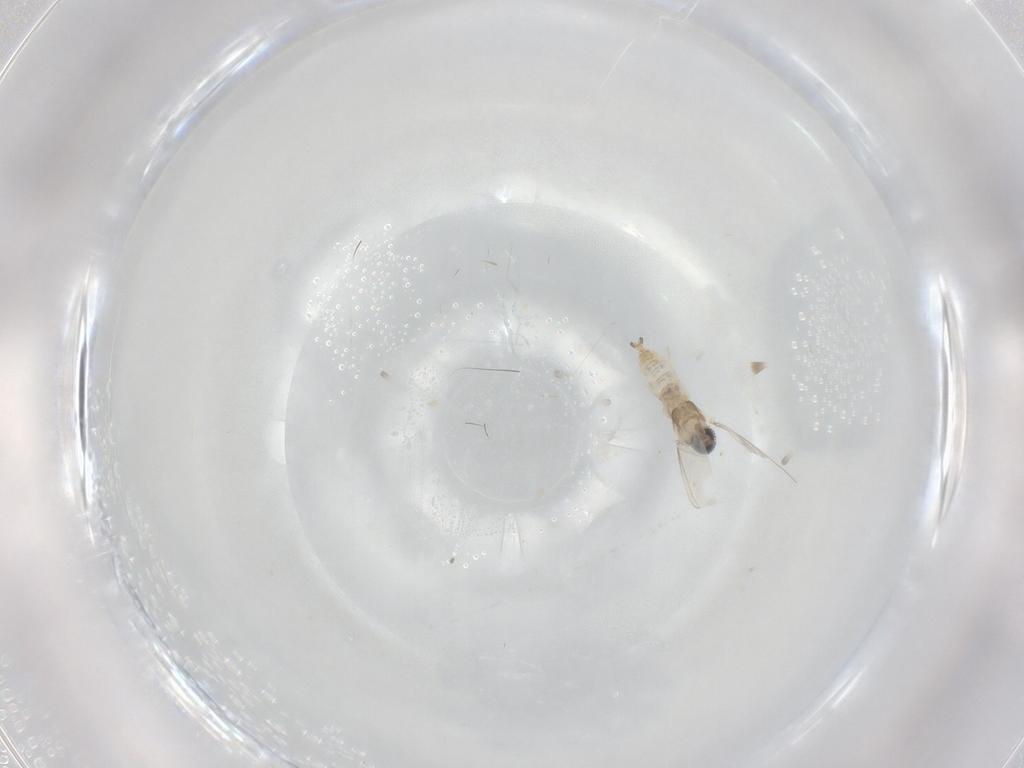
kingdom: Animalia
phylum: Arthropoda
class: Insecta
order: Diptera
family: Cecidomyiidae
